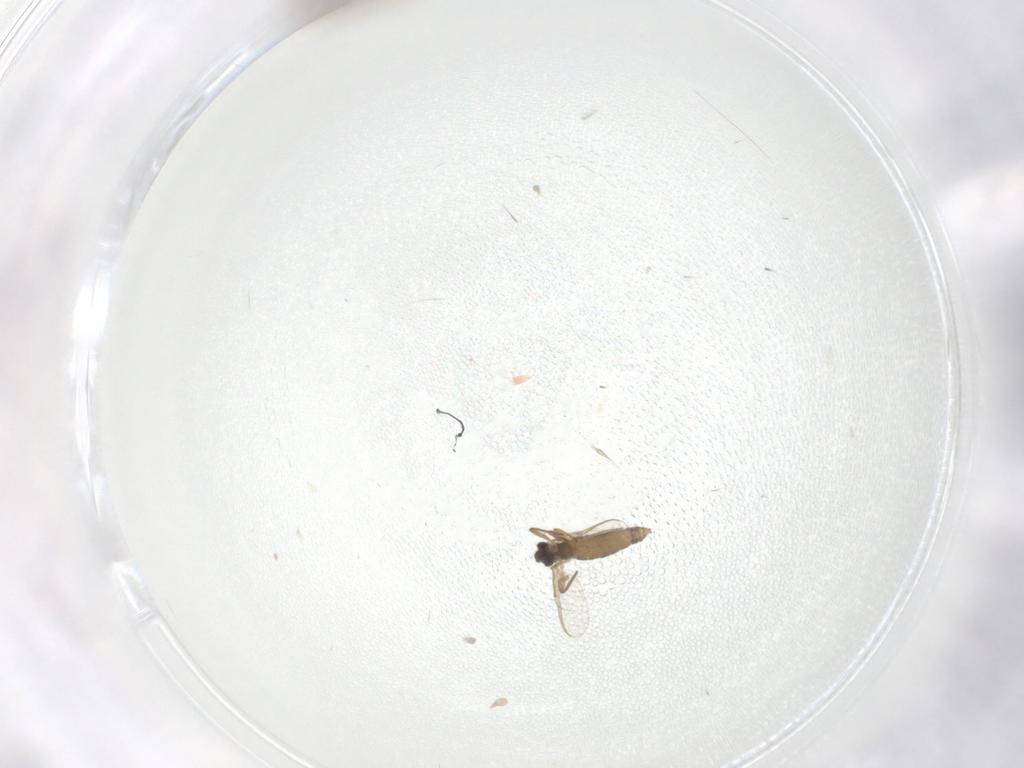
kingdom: Animalia
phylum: Arthropoda
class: Insecta
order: Diptera
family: Chironomidae
